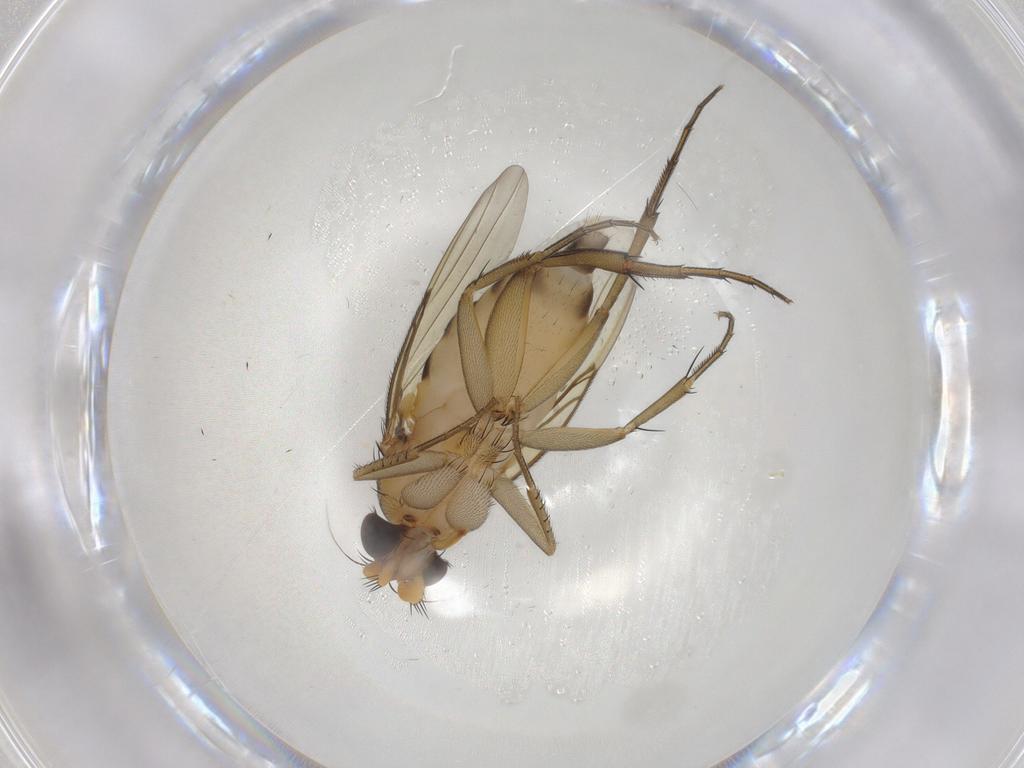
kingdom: Animalia
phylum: Arthropoda
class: Insecta
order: Diptera
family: Phoridae
